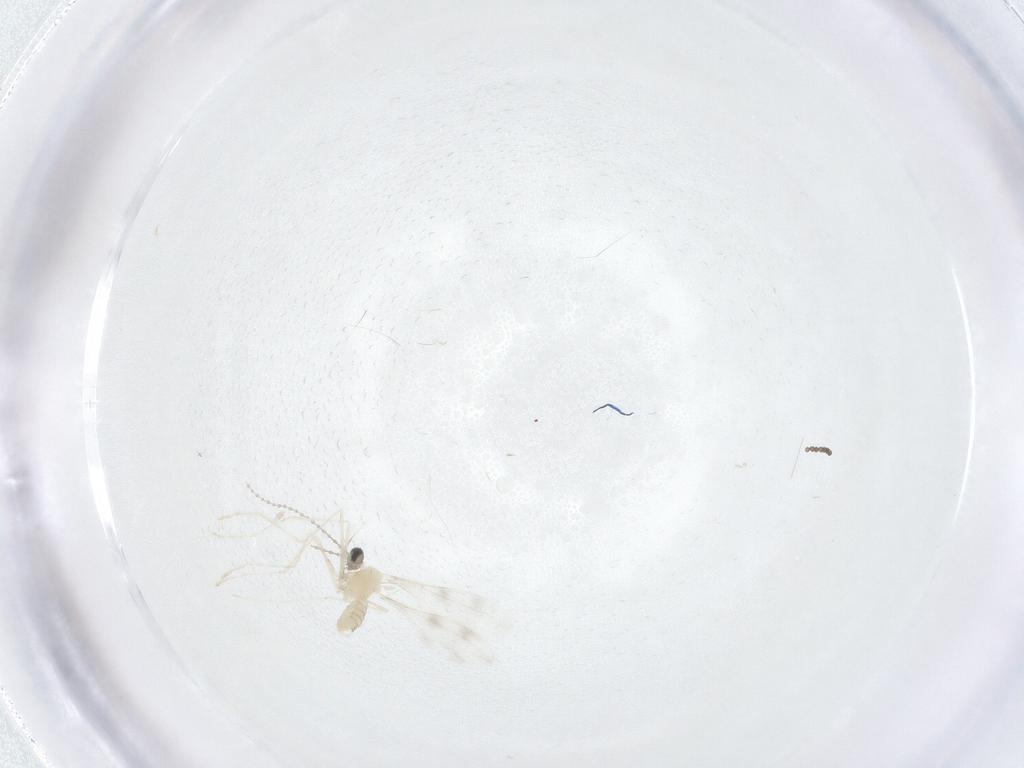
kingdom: Animalia
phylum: Arthropoda
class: Insecta
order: Diptera
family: Cecidomyiidae
